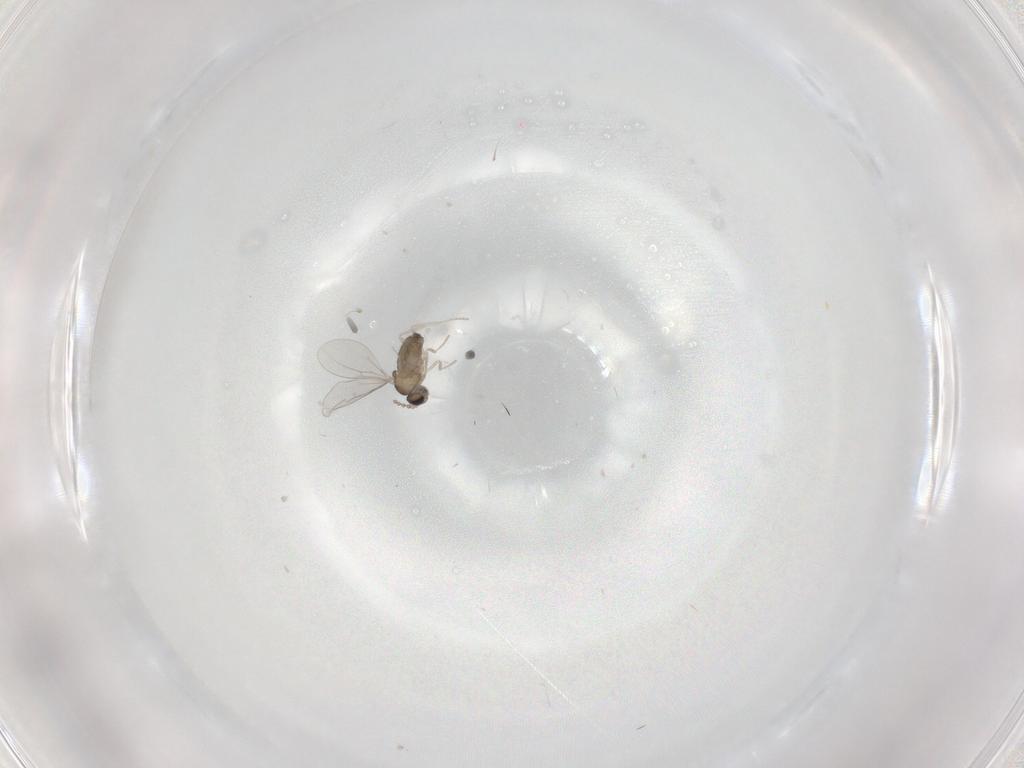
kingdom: Animalia
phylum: Arthropoda
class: Insecta
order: Diptera
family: Cecidomyiidae
